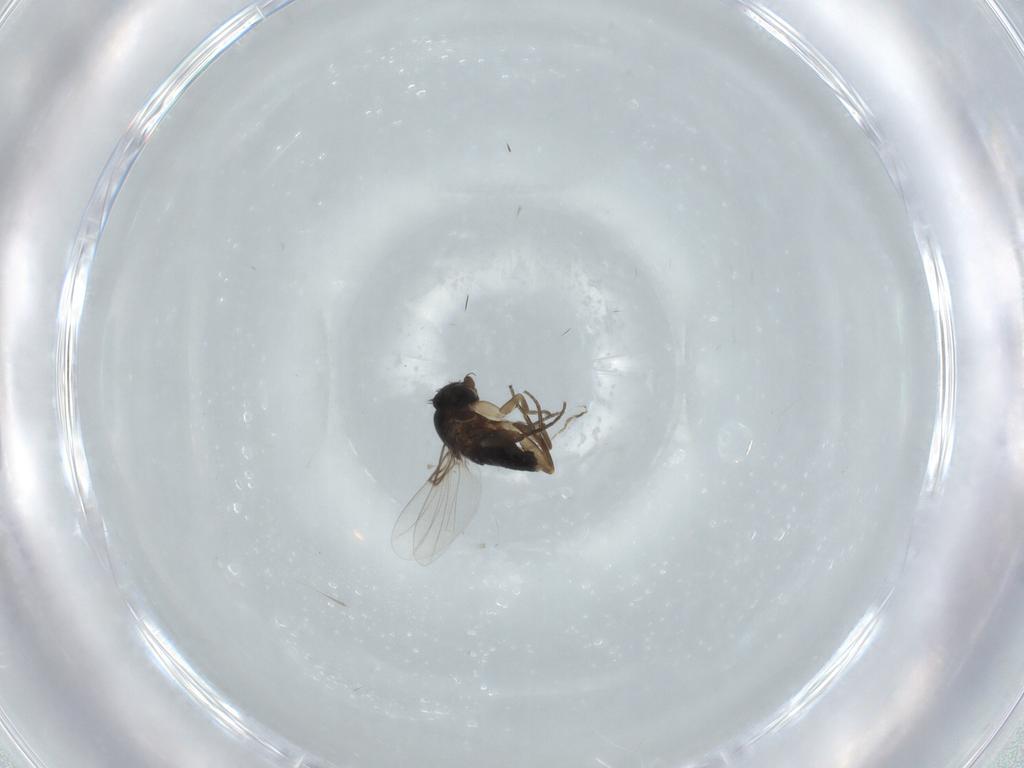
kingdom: Animalia
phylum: Arthropoda
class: Insecta
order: Diptera
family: Phoridae
